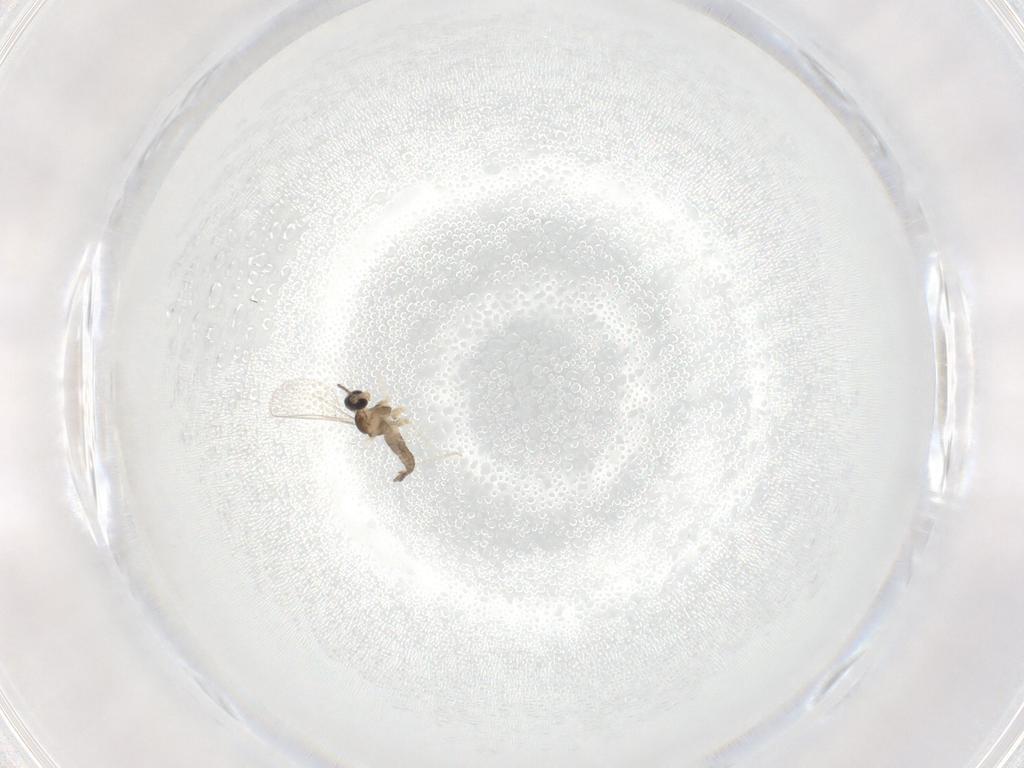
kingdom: Animalia
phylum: Arthropoda
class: Insecta
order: Diptera
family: Cecidomyiidae
